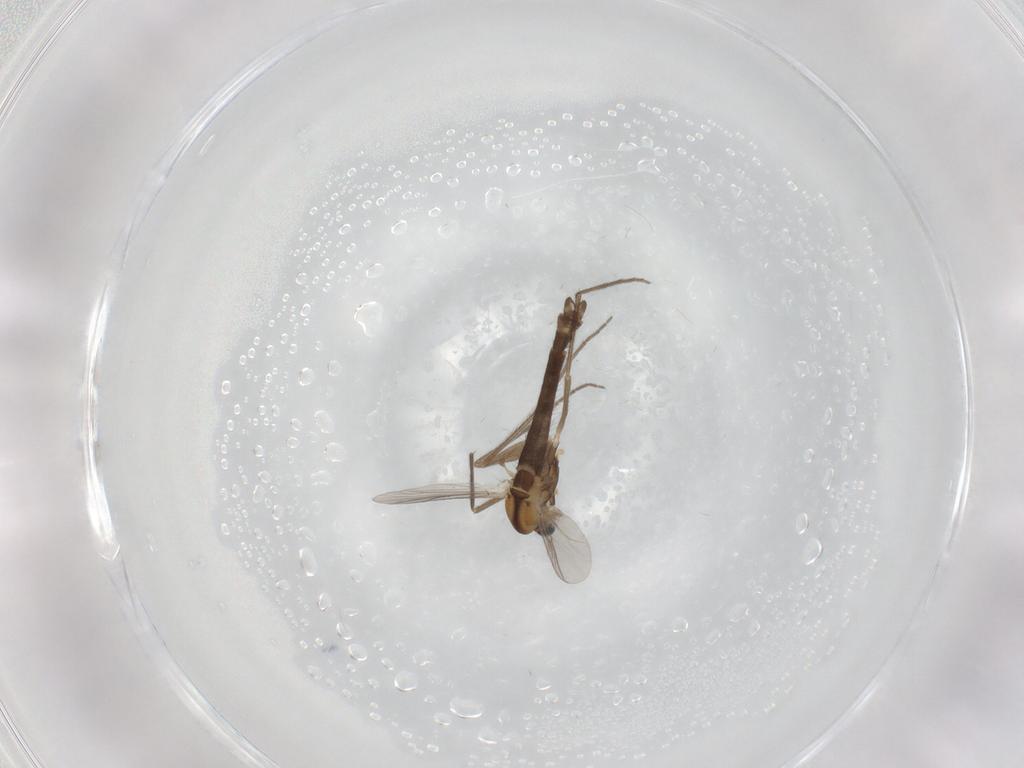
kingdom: Animalia
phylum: Arthropoda
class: Insecta
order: Diptera
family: Chironomidae
